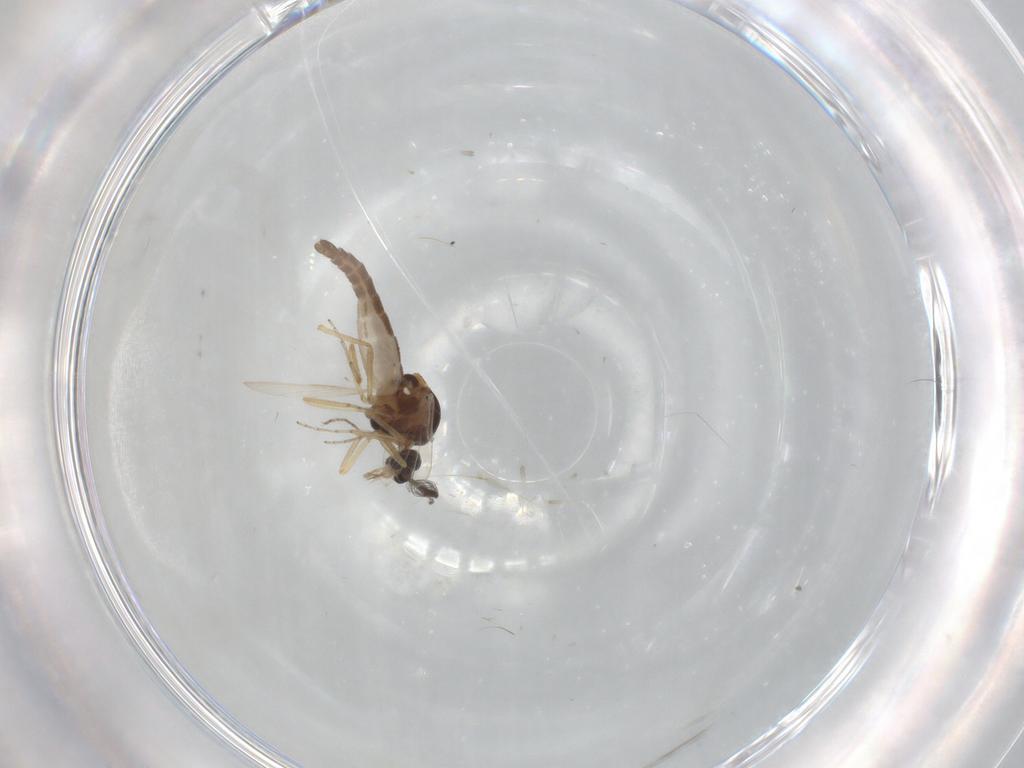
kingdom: Animalia
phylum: Arthropoda
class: Insecta
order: Diptera
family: Ceratopogonidae
